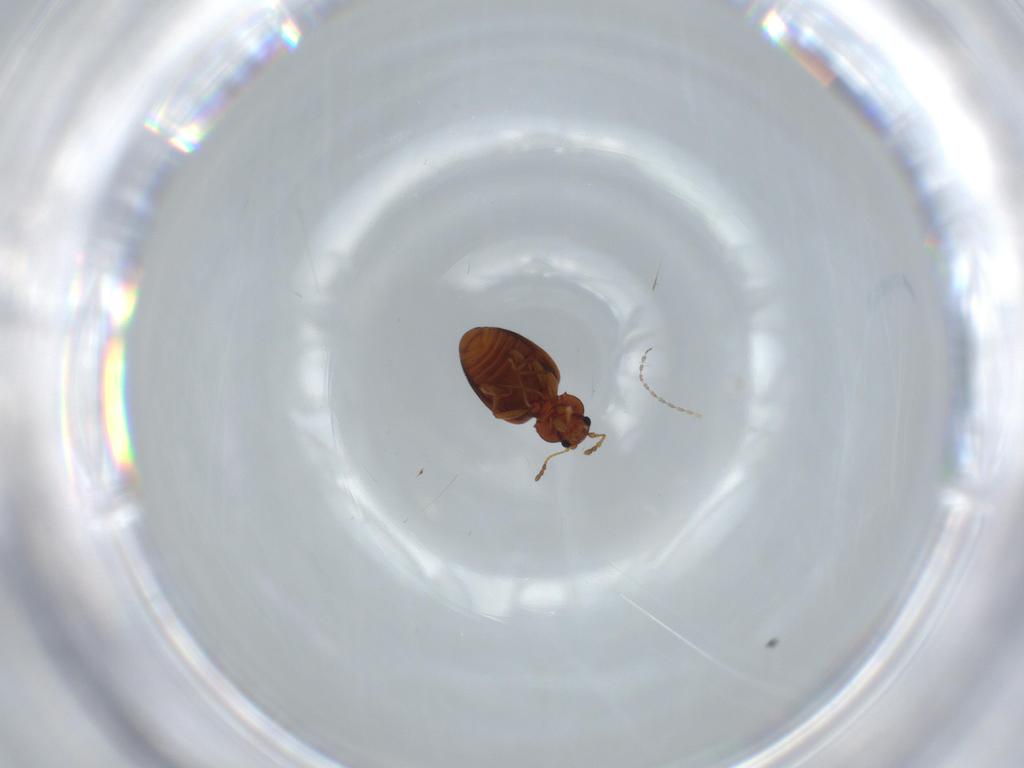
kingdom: Animalia
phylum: Arthropoda
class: Insecta
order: Coleoptera
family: Latridiidae
